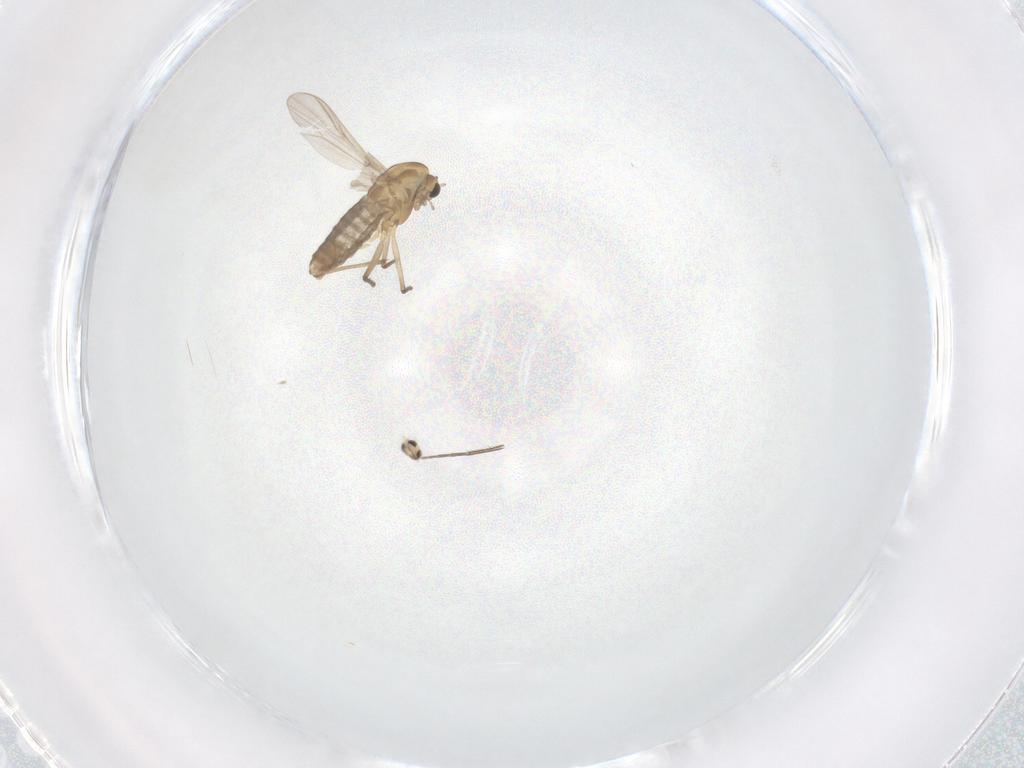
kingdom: Animalia
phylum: Arthropoda
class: Insecta
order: Diptera
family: Chironomidae
